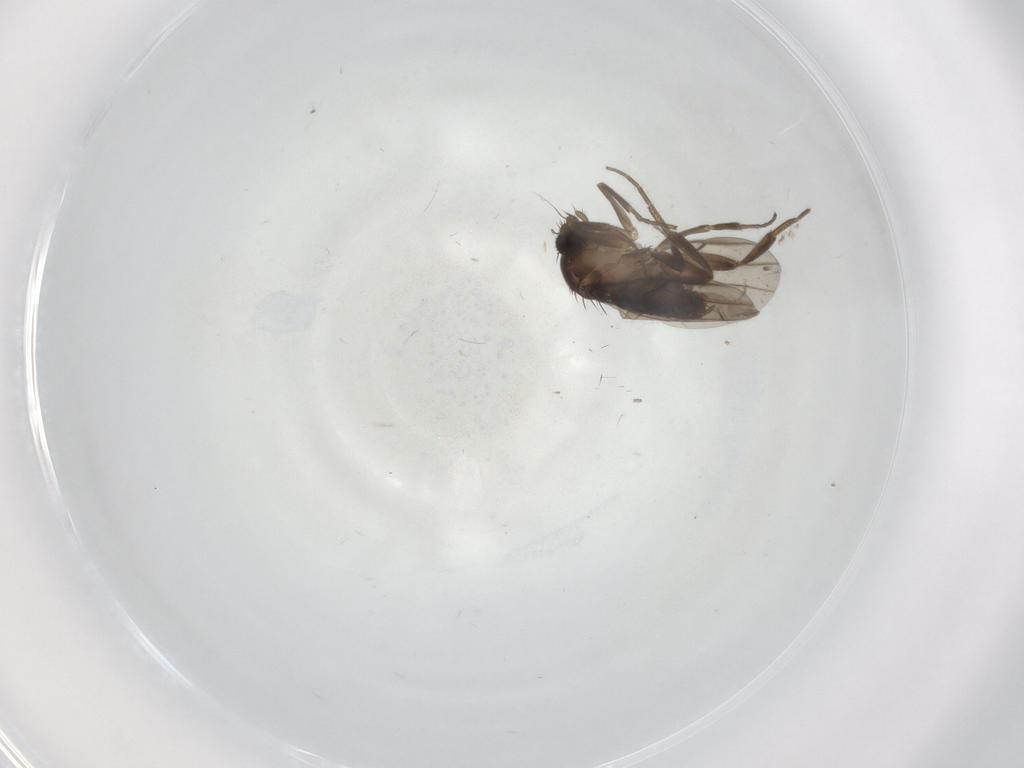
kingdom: Animalia
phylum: Arthropoda
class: Insecta
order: Diptera
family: Phoridae
